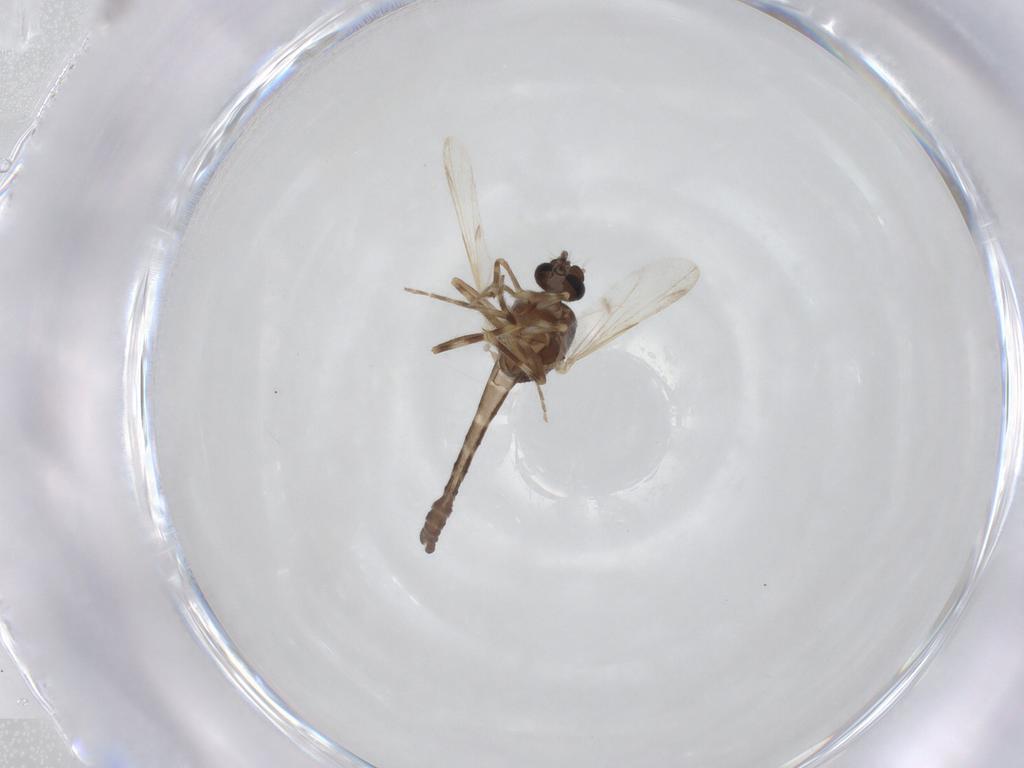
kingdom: Animalia
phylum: Arthropoda
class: Insecta
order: Diptera
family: Ceratopogonidae
